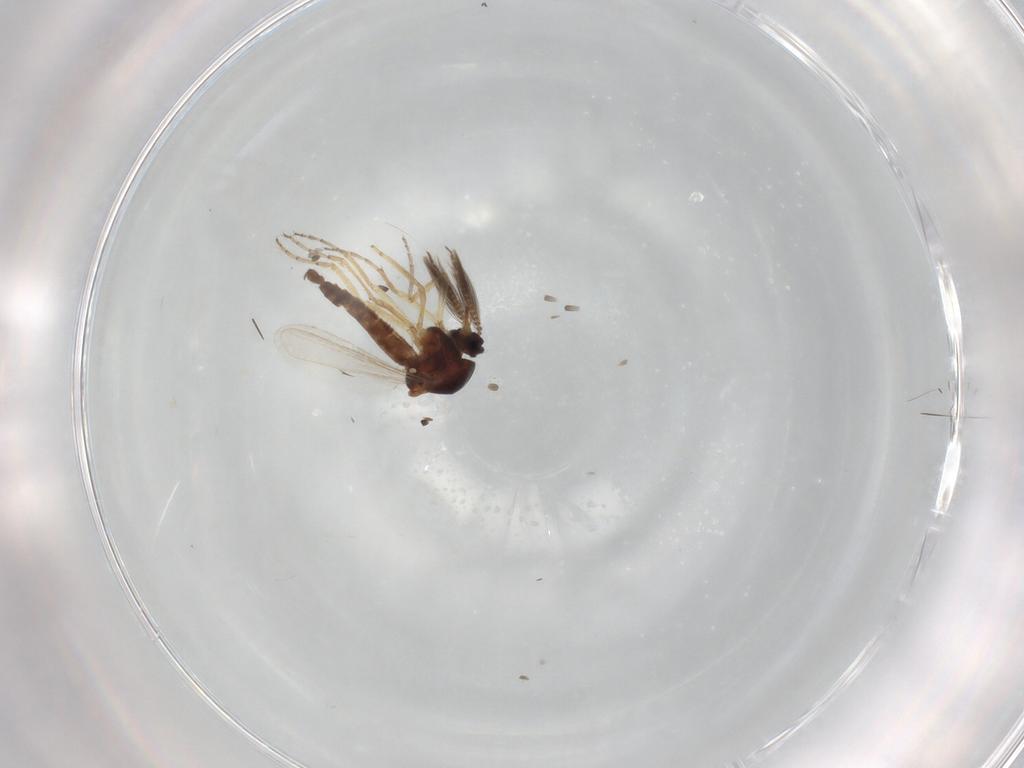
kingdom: Animalia
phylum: Arthropoda
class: Insecta
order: Diptera
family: Ceratopogonidae
